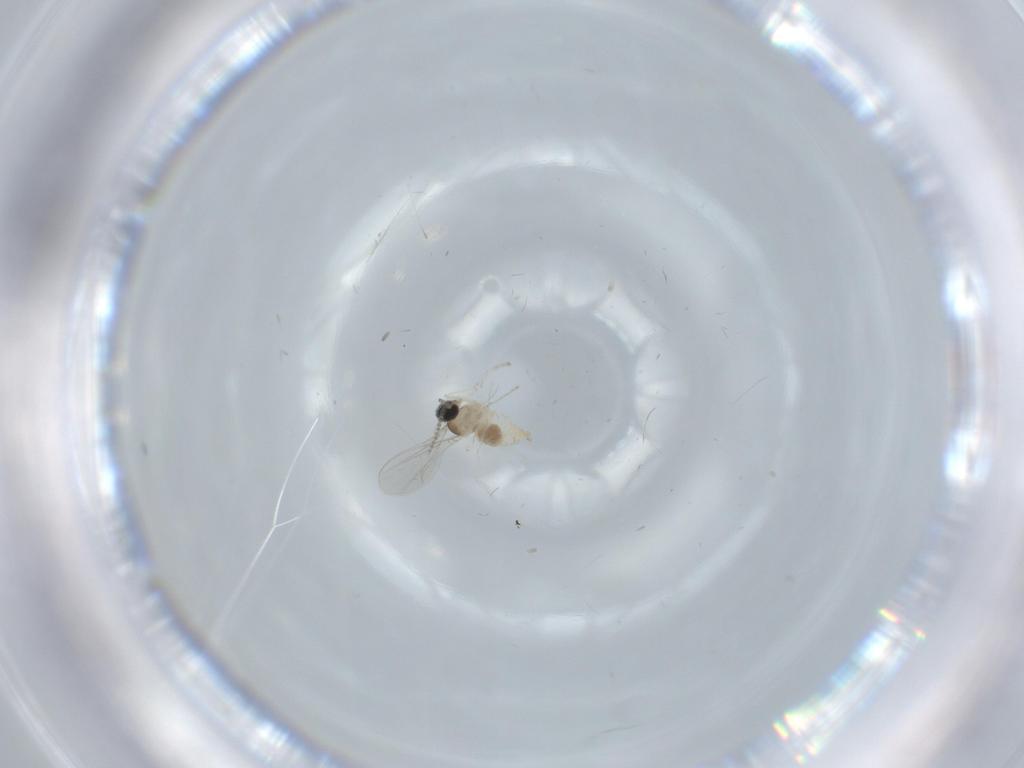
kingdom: Animalia
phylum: Arthropoda
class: Insecta
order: Diptera
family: Cecidomyiidae
